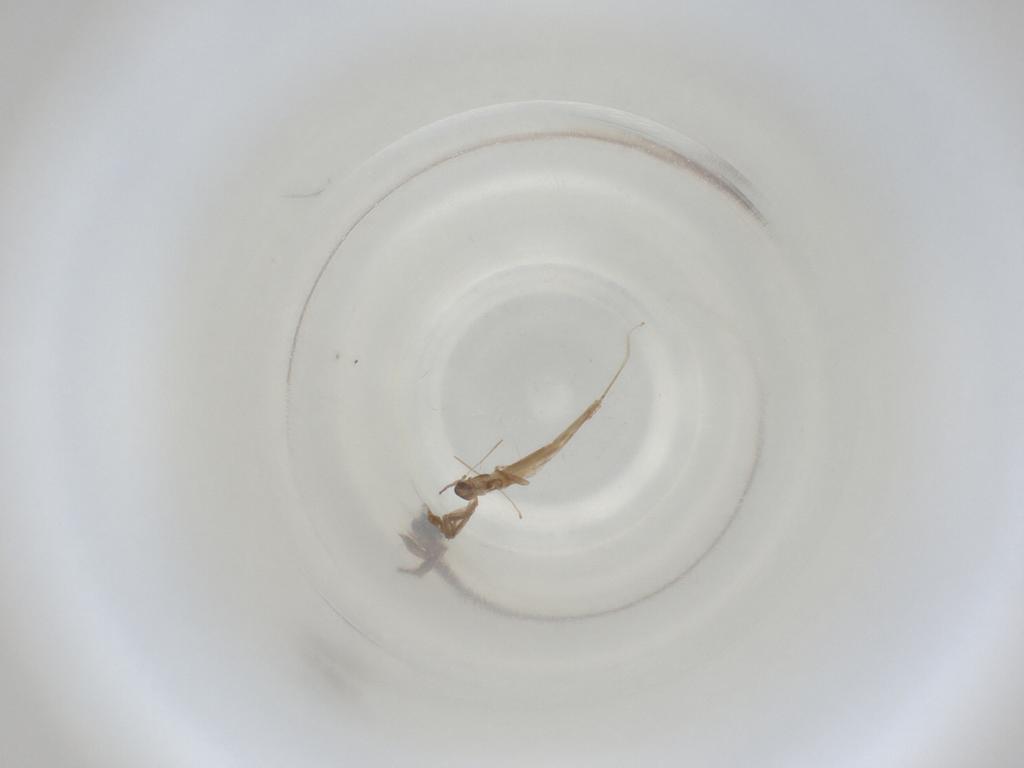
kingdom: Animalia
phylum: Arthropoda
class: Insecta
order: Diptera
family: Cecidomyiidae
